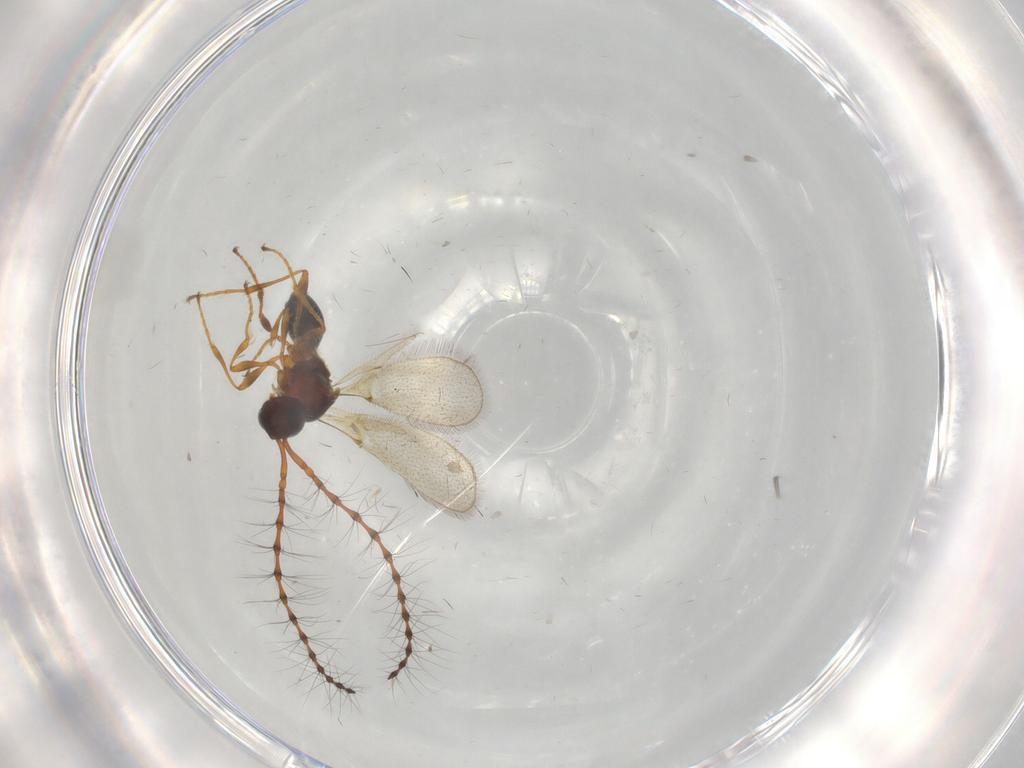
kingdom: Animalia
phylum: Arthropoda
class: Insecta
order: Hymenoptera
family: Diapriidae
